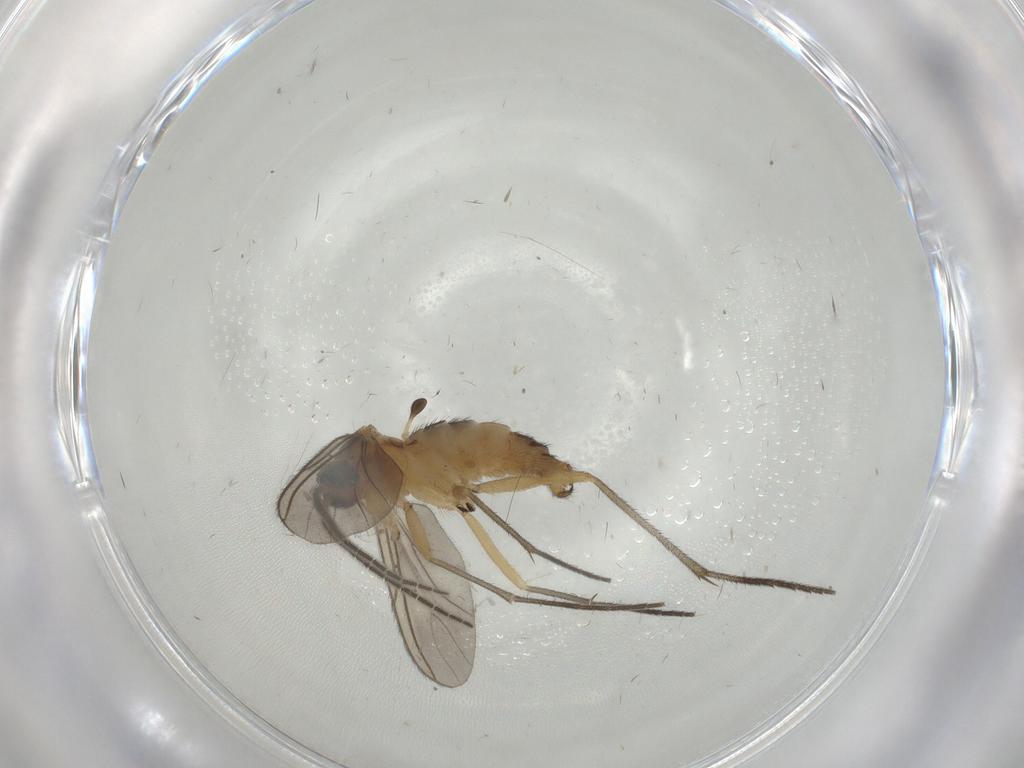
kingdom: Animalia
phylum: Arthropoda
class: Insecta
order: Diptera
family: Sciaridae
